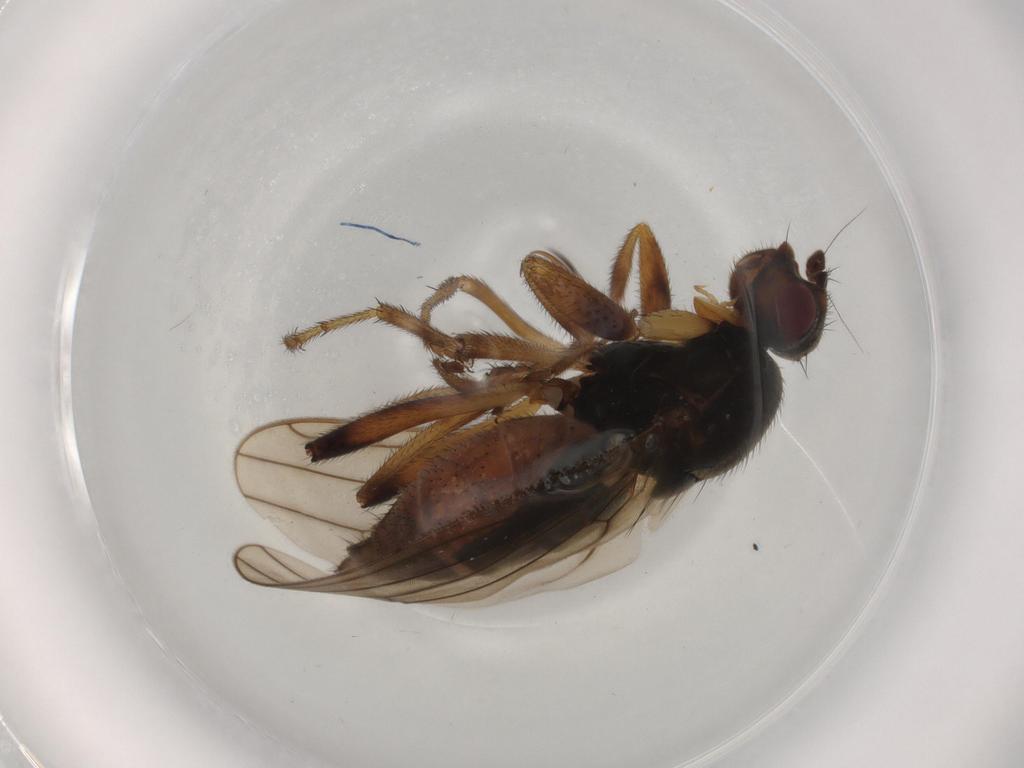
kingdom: Animalia
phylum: Arthropoda
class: Insecta
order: Diptera
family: Sphaeroceridae
